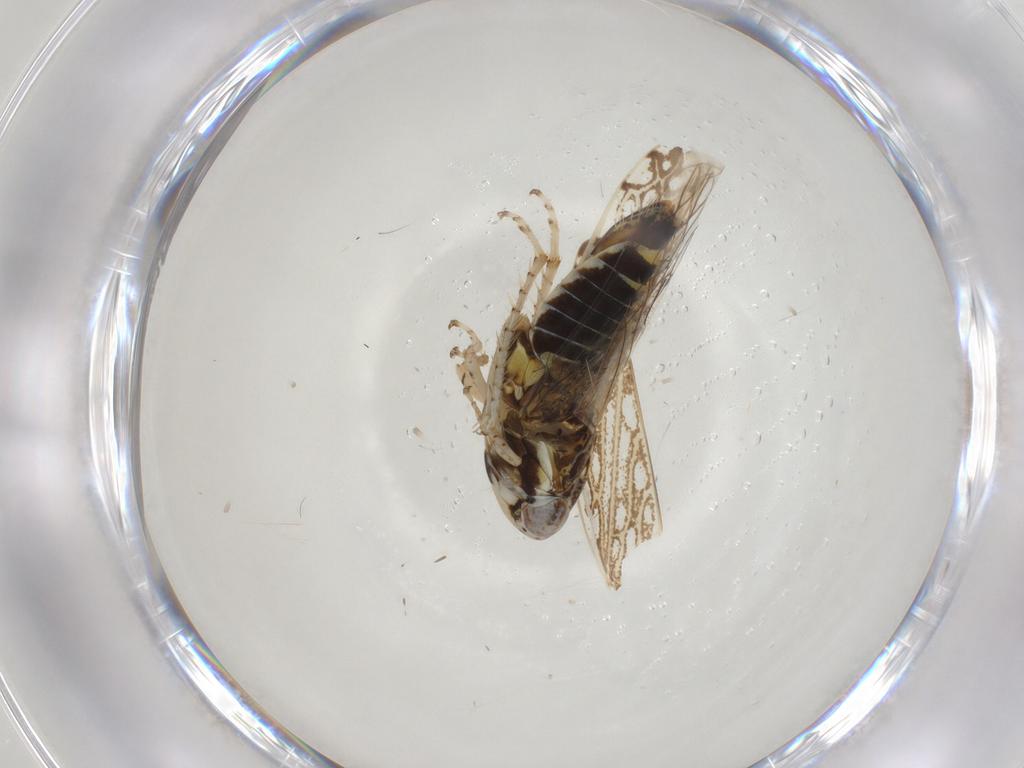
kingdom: Animalia
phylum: Arthropoda
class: Insecta
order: Hemiptera
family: Cicadellidae
